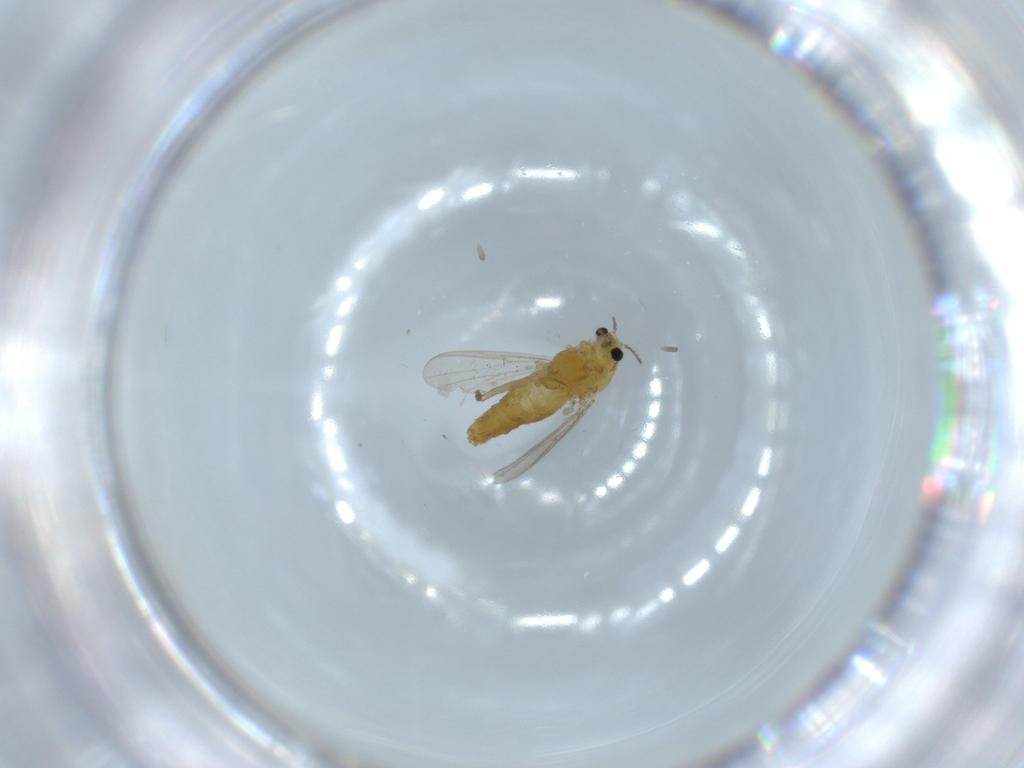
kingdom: Animalia
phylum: Arthropoda
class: Insecta
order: Diptera
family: Chironomidae
